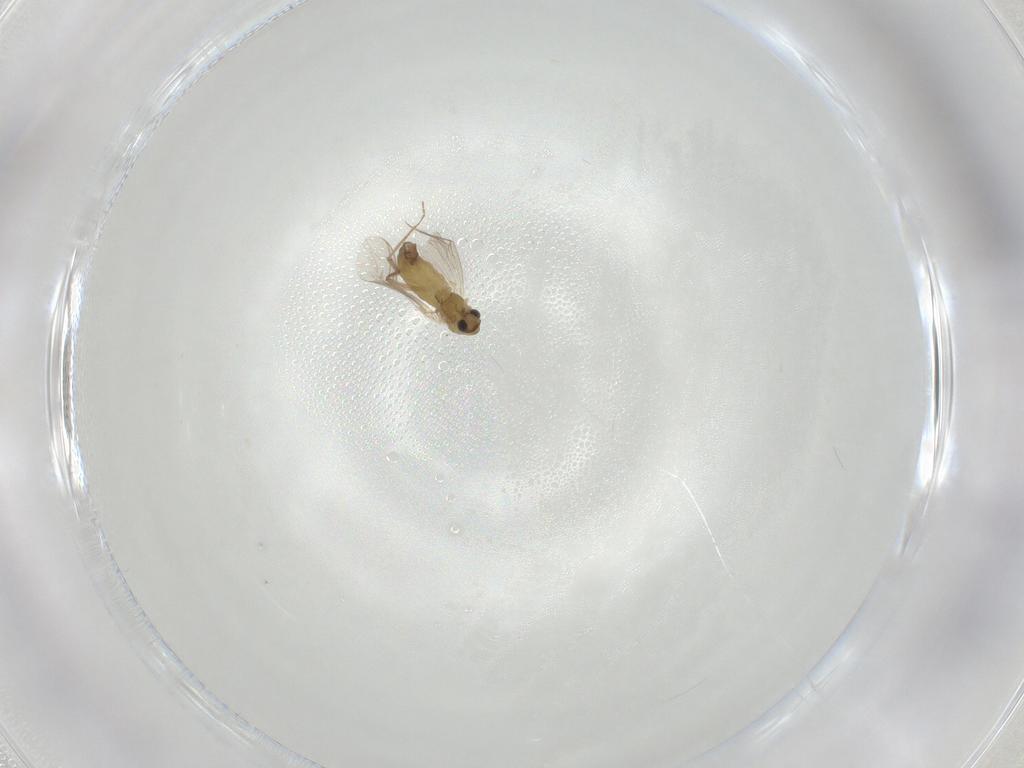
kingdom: Animalia
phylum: Arthropoda
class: Insecta
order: Diptera
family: Chironomidae
